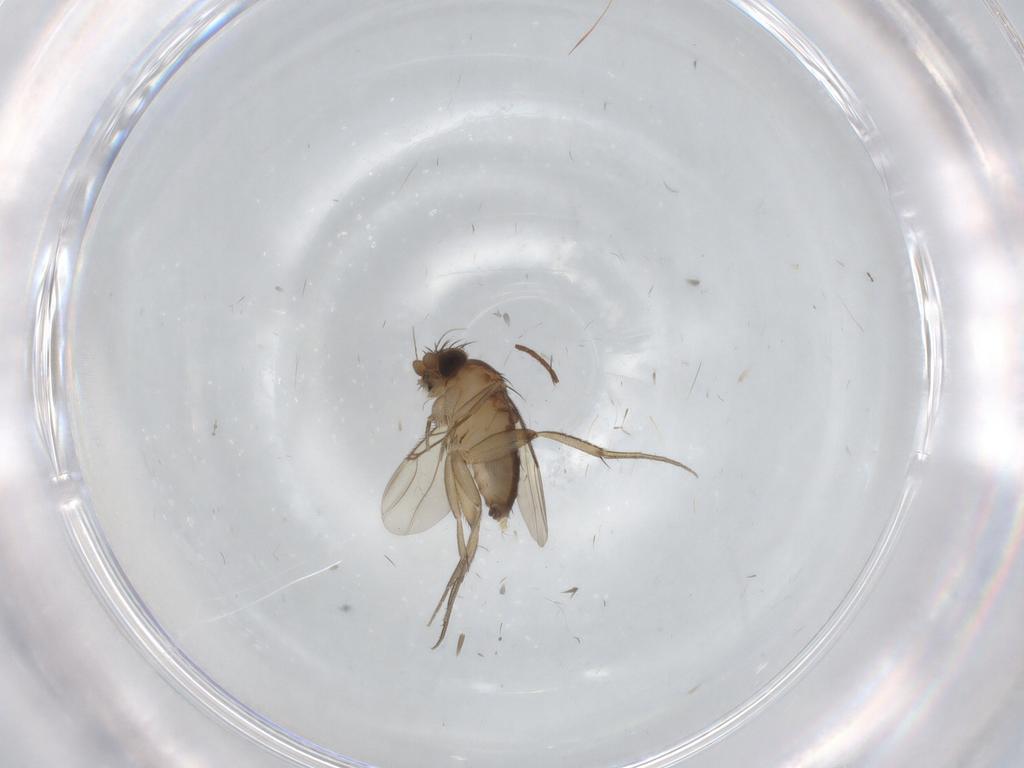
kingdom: Animalia
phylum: Arthropoda
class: Insecta
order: Diptera
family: Phoridae
